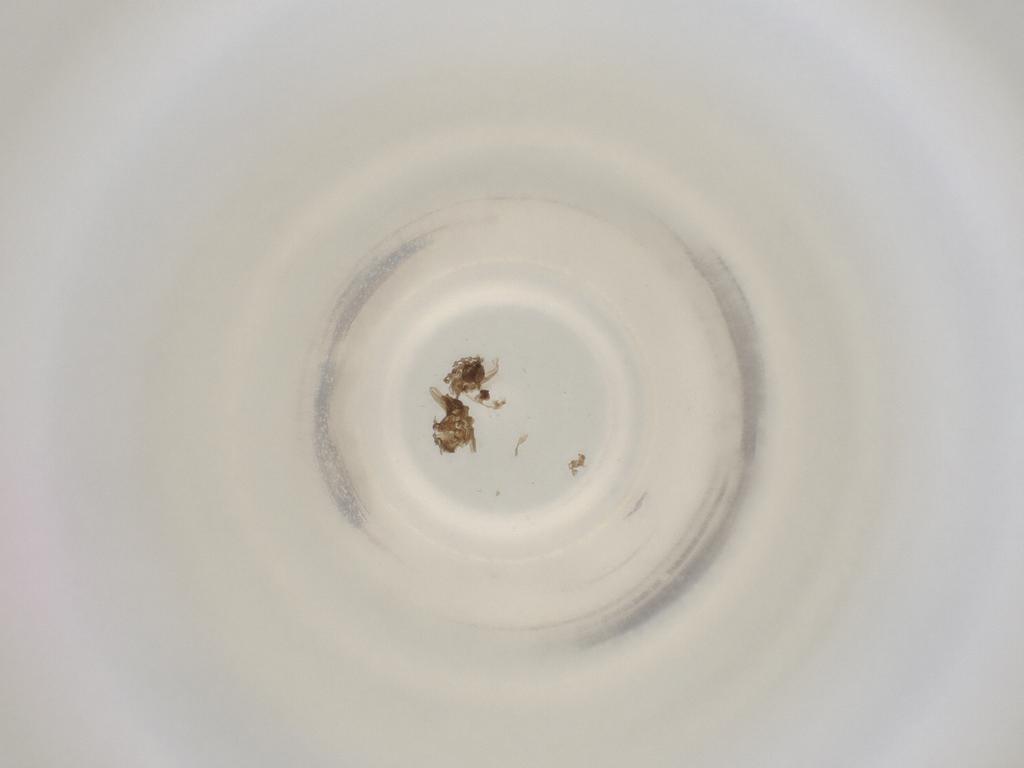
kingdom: Animalia
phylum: Arthropoda
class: Insecta
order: Diptera
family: Cecidomyiidae
